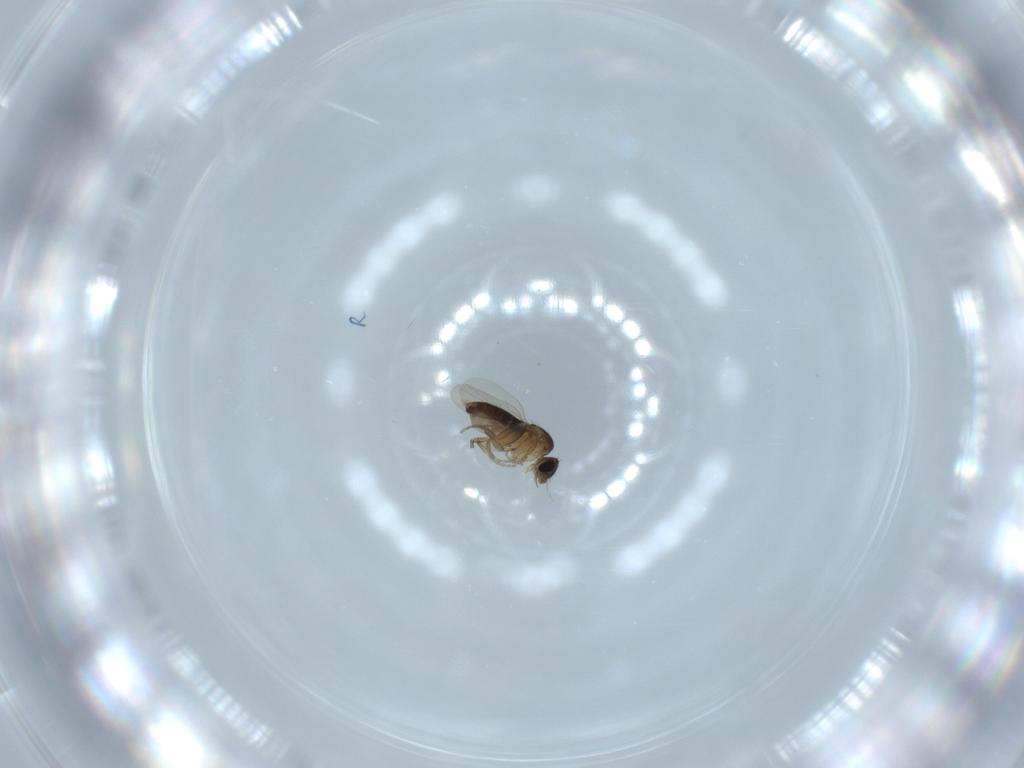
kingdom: Animalia
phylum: Arthropoda
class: Insecta
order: Diptera
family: Phoridae
